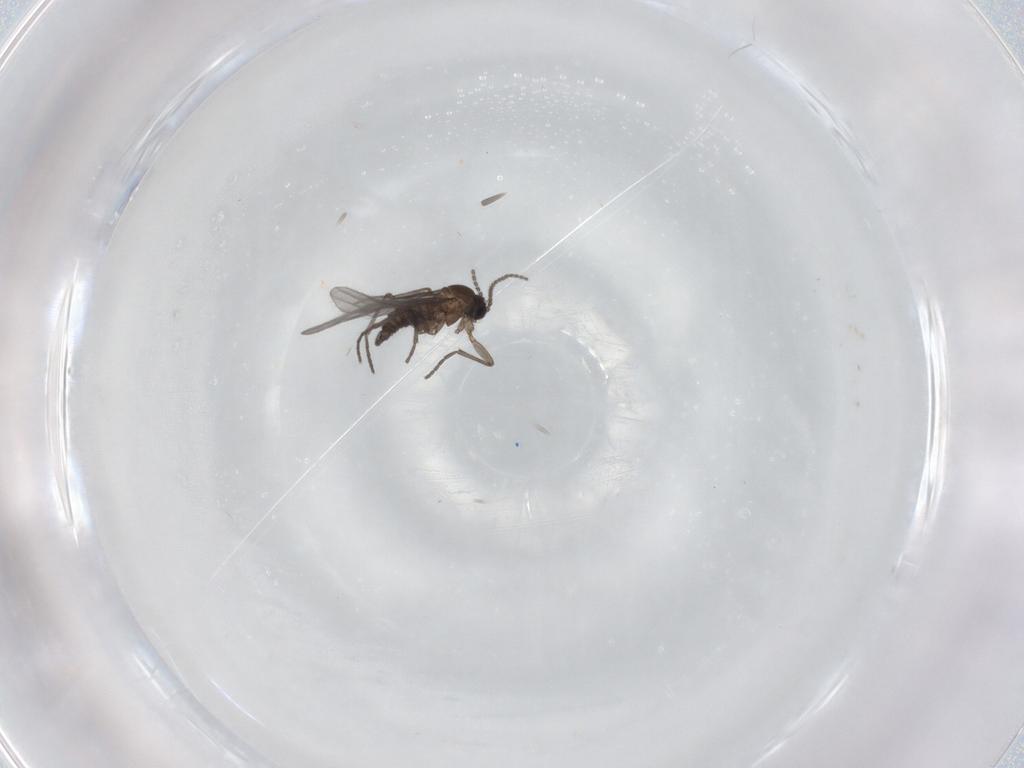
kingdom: Animalia
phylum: Arthropoda
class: Insecta
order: Diptera
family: Sciaridae
